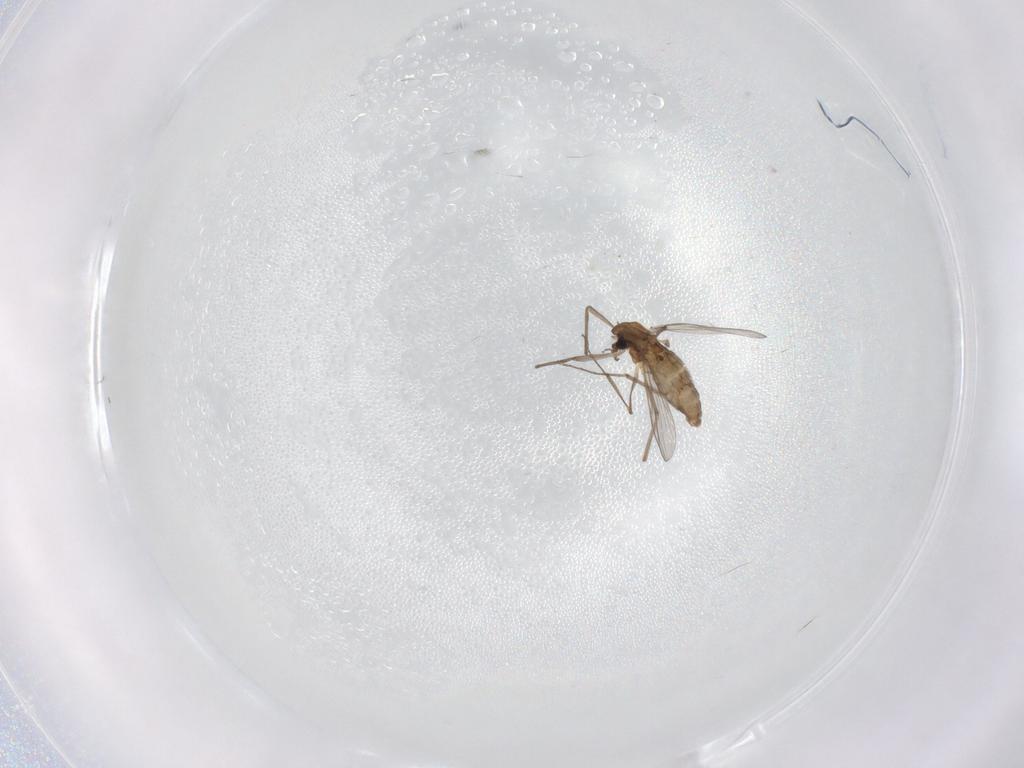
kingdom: Animalia
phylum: Arthropoda
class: Insecta
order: Diptera
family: Chironomidae
